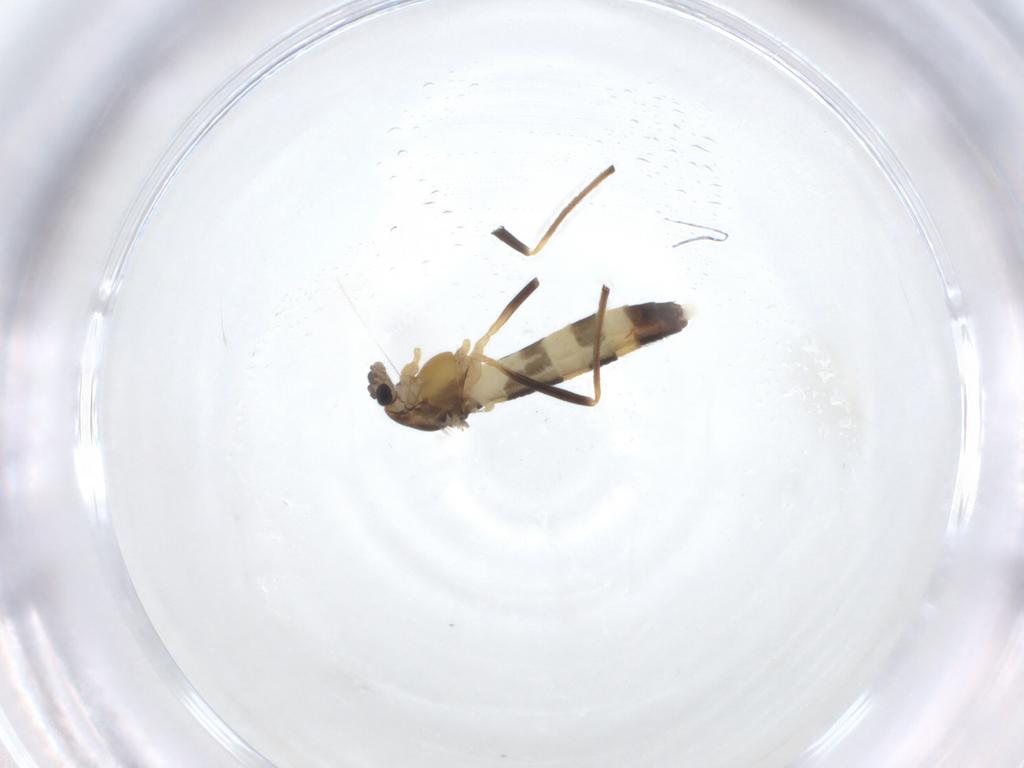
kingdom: Animalia
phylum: Arthropoda
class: Insecta
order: Diptera
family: Chironomidae
